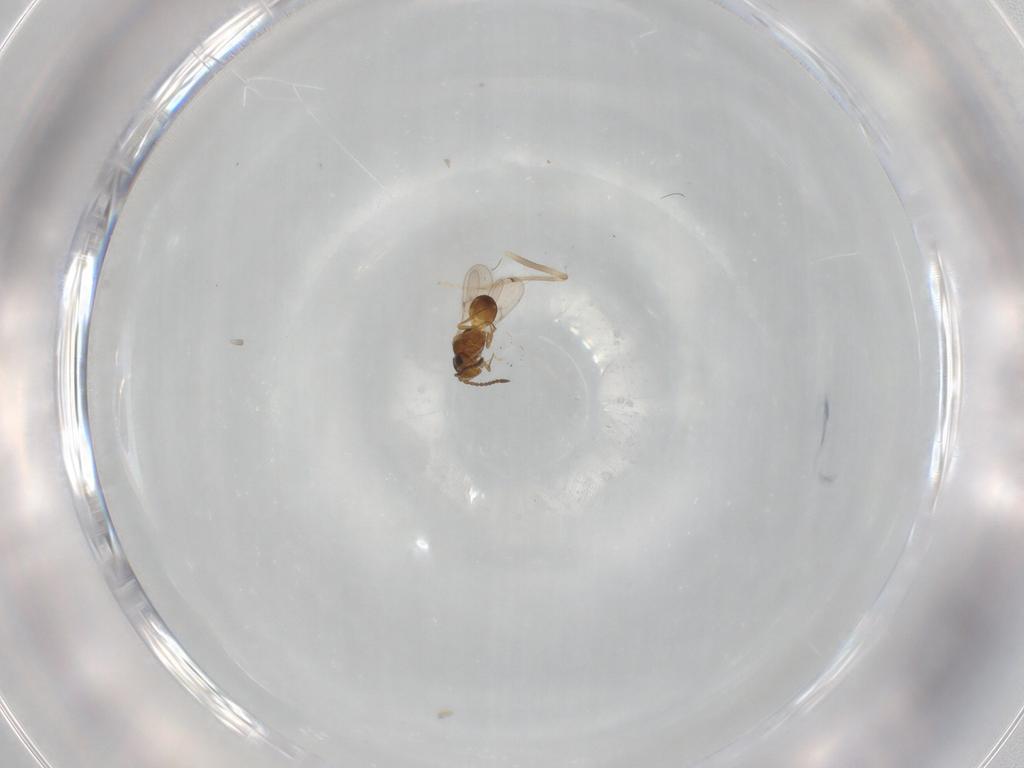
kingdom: Animalia
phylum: Arthropoda
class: Insecta
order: Hymenoptera
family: Scelionidae
